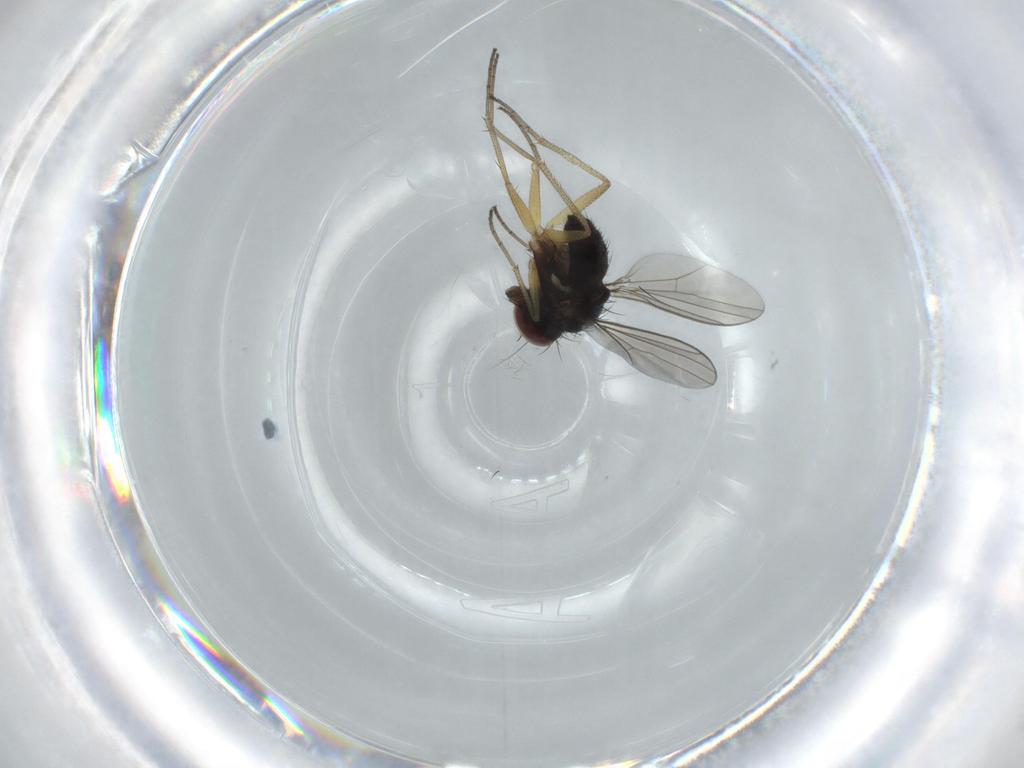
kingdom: Animalia
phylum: Arthropoda
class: Insecta
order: Diptera
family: Dolichopodidae
